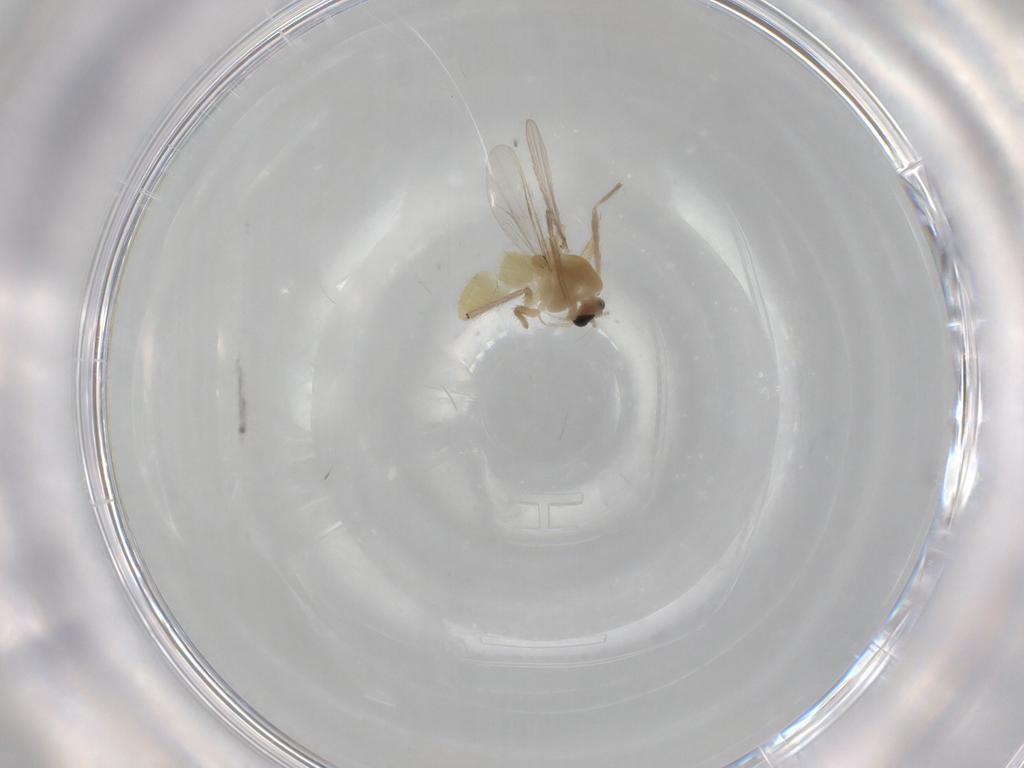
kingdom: Animalia
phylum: Arthropoda
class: Insecta
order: Diptera
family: Chironomidae
